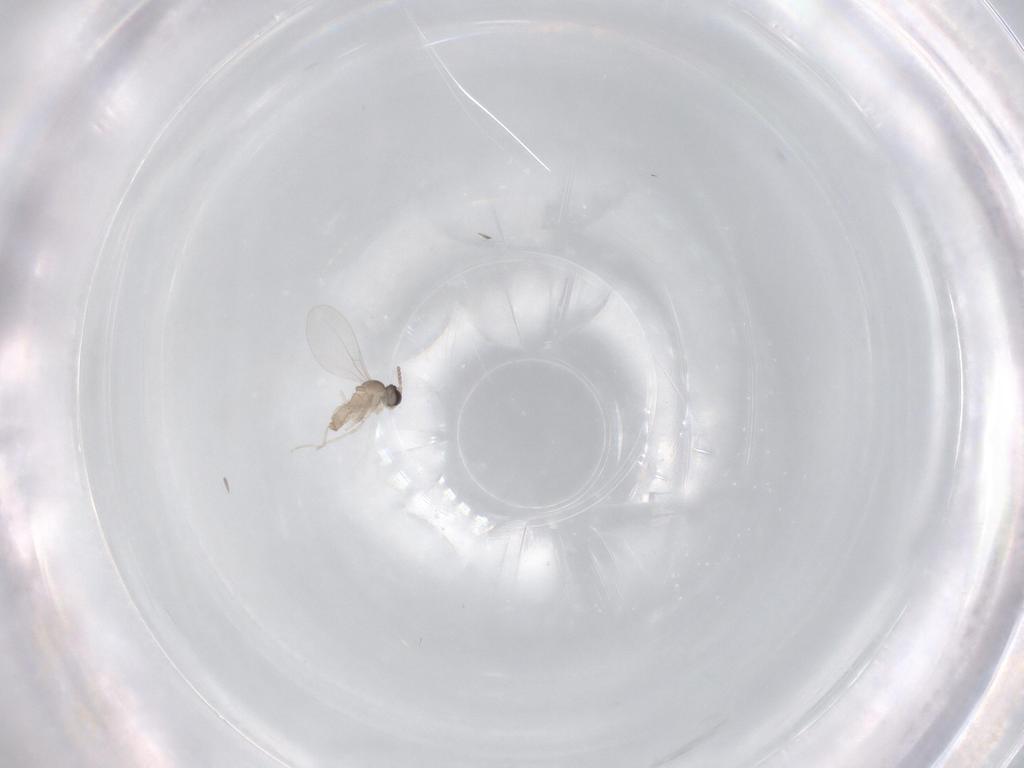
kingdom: Animalia
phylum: Arthropoda
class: Insecta
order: Diptera
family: Cecidomyiidae
